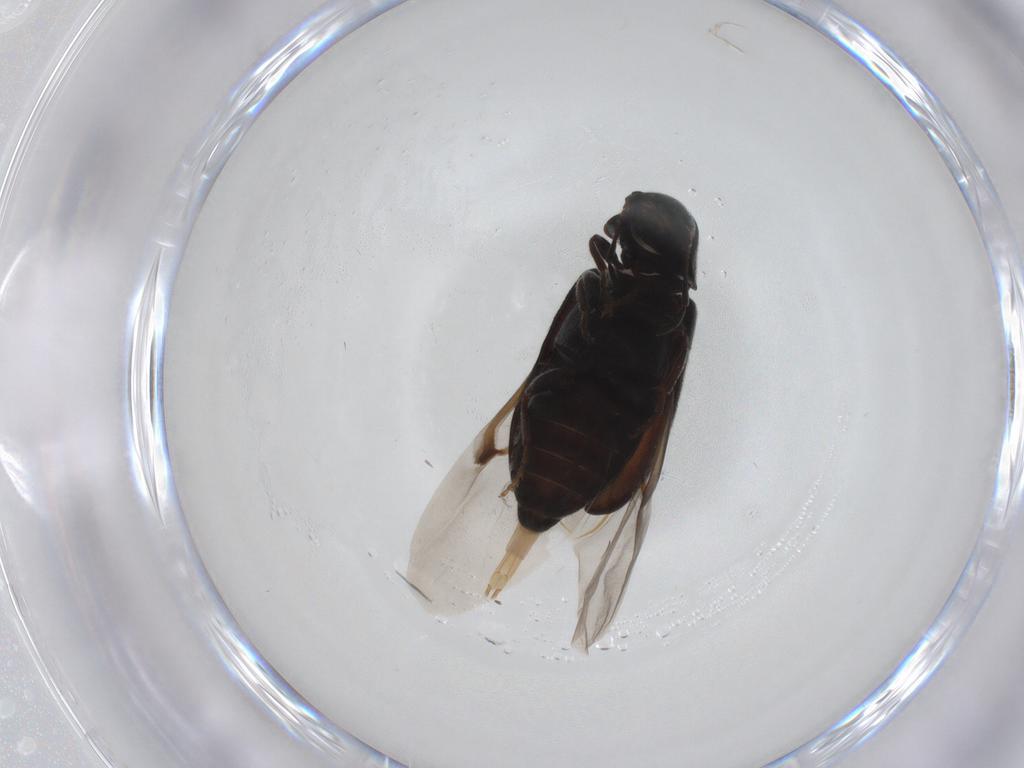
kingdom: Animalia
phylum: Arthropoda
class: Insecta
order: Coleoptera
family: Ptinidae
